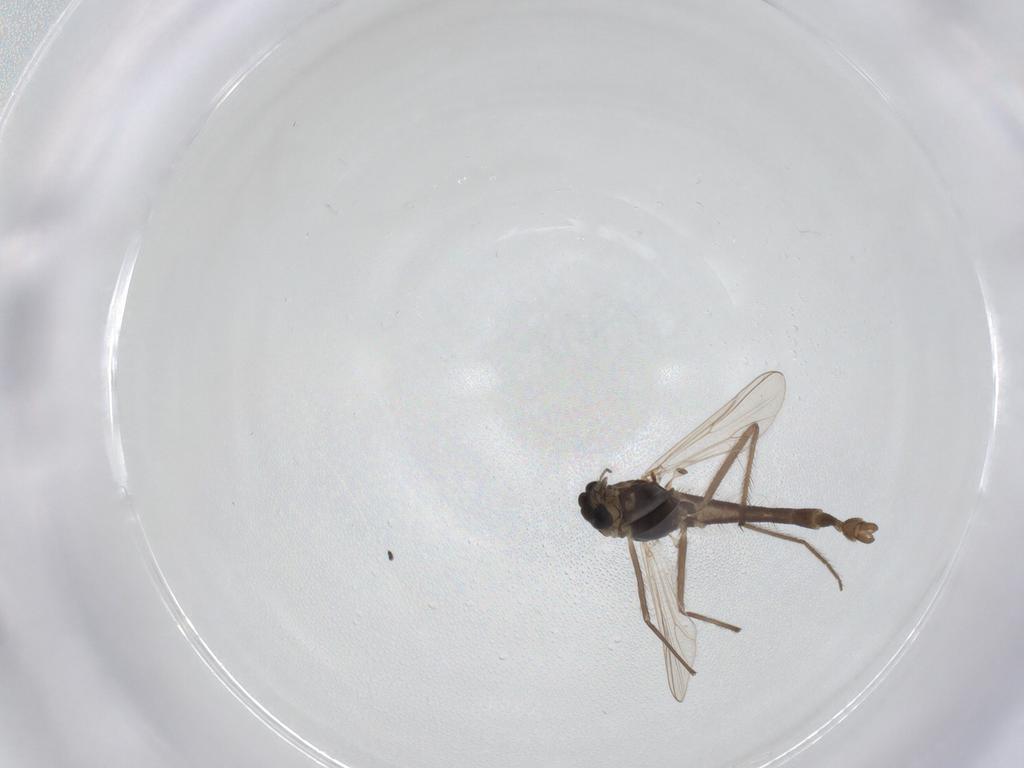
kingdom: Animalia
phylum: Arthropoda
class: Insecta
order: Diptera
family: Chironomidae
